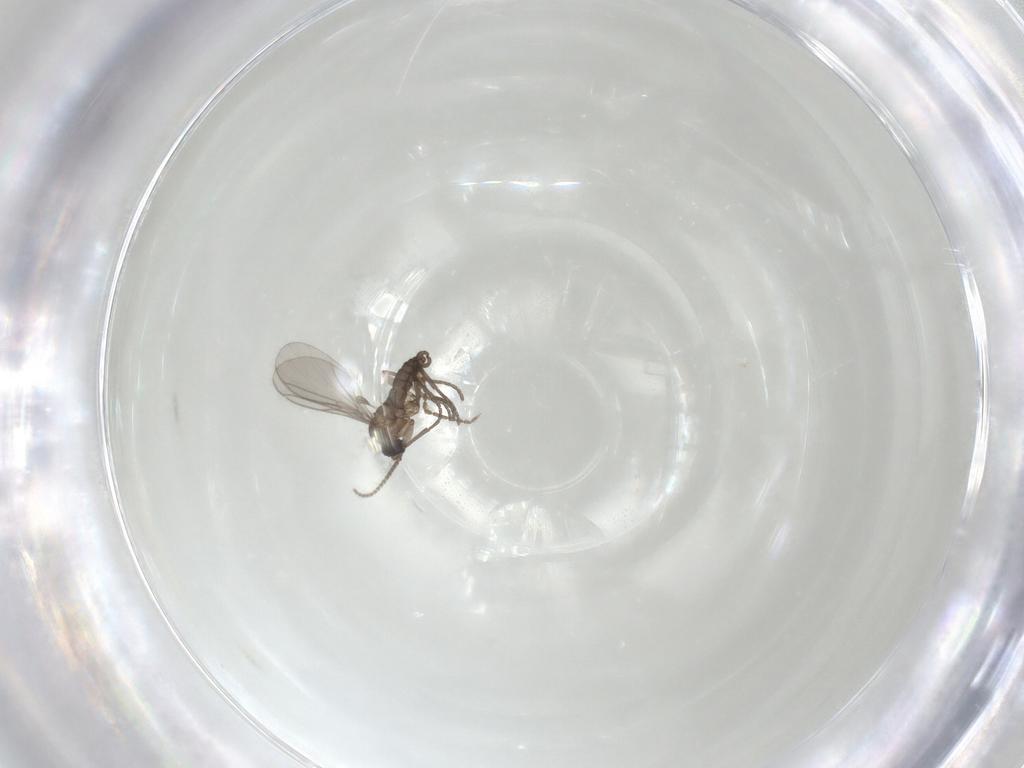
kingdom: Animalia
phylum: Arthropoda
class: Insecta
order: Diptera
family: Cecidomyiidae
